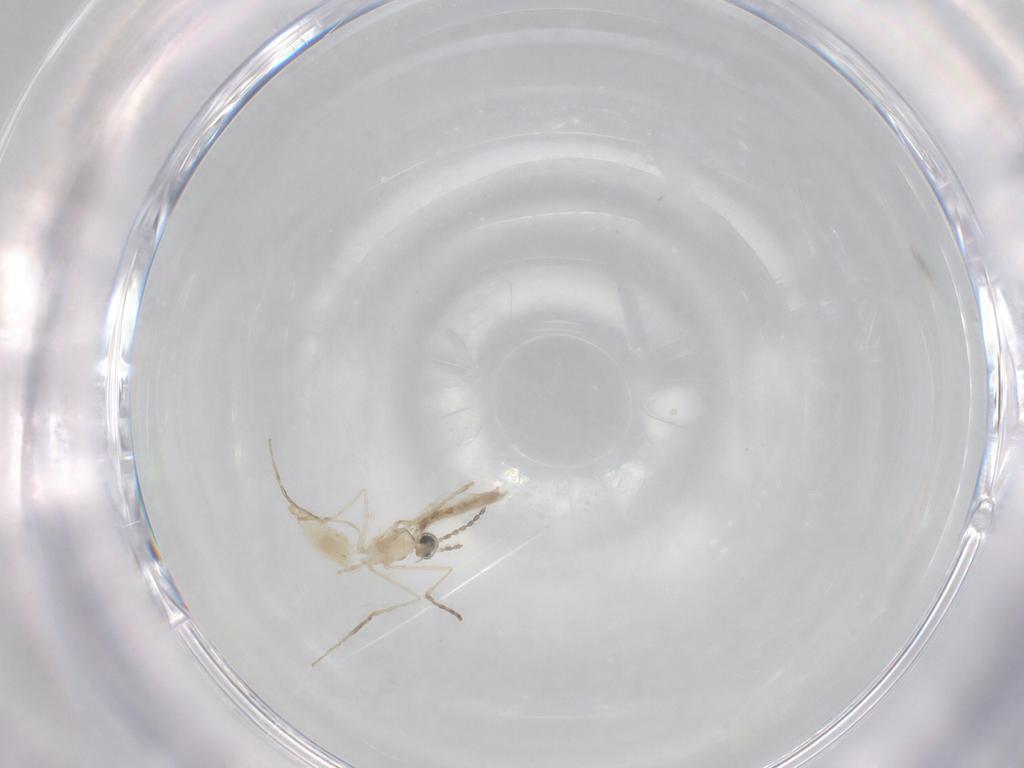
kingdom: Animalia
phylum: Arthropoda
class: Insecta
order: Diptera
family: Cecidomyiidae
